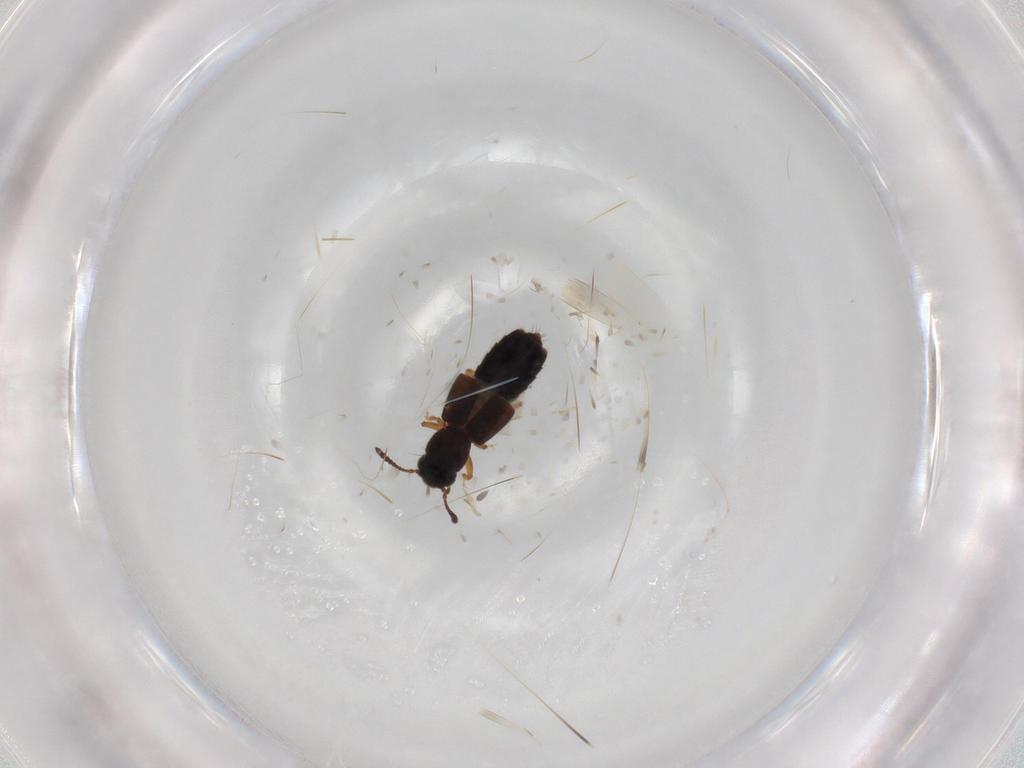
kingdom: Animalia
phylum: Arthropoda
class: Insecta
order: Coleoptera
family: Staphylinidae
